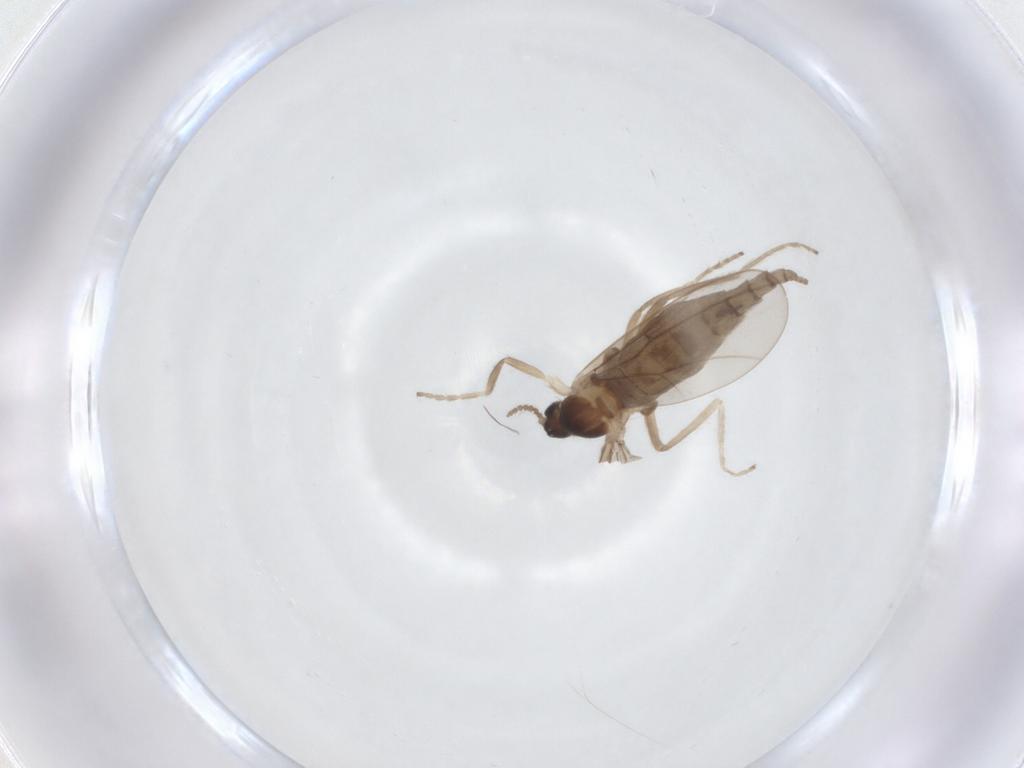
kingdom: Animalia
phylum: Arthropoda
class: Insecta
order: Diptera
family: Cecidomyiidae
